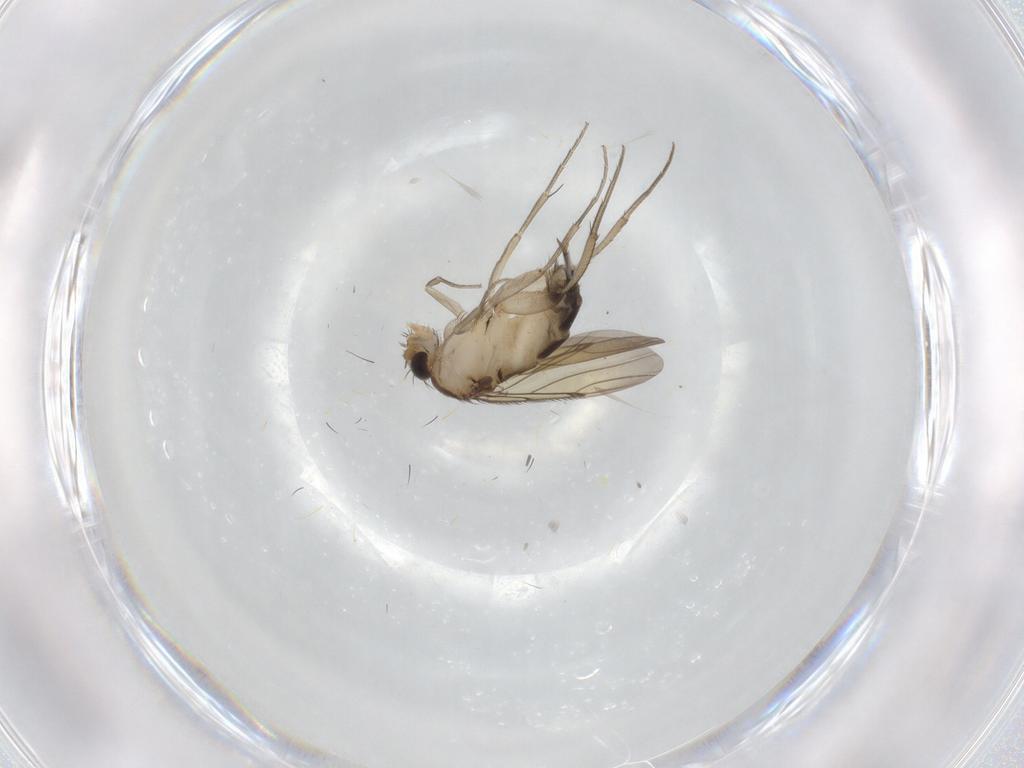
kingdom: Animalia
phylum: Arthropoda
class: Insecta
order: Diptera
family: Phoridae
